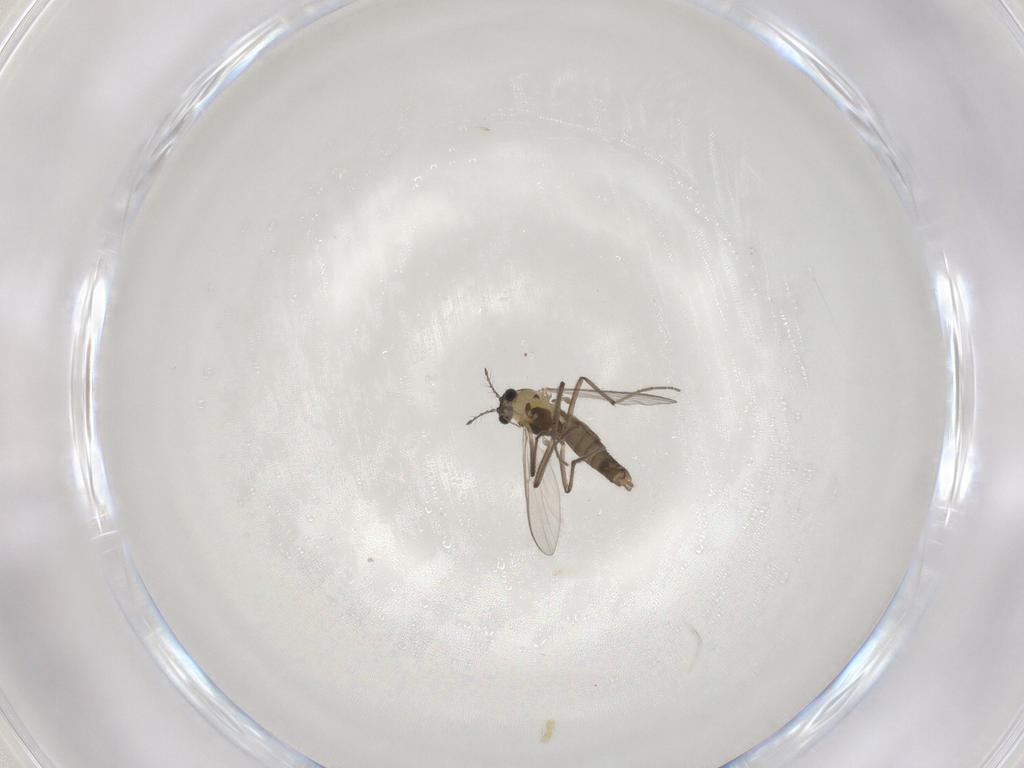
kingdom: Animalia
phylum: Arthropoda
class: Insecta
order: Diptera
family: Chironomidae
